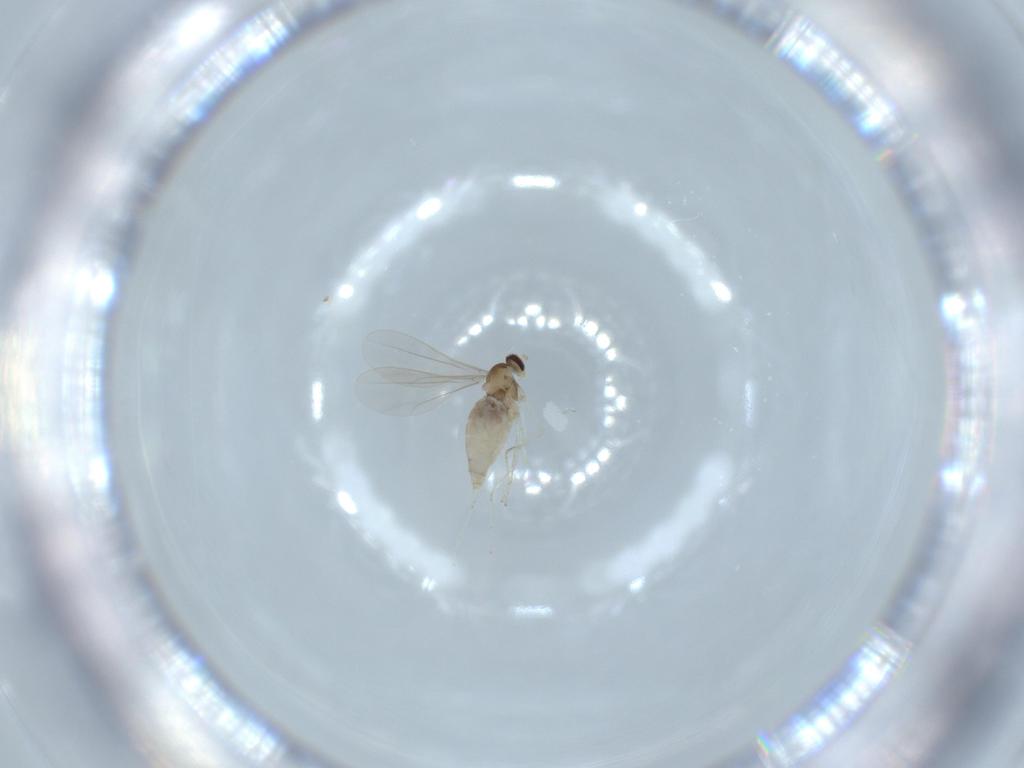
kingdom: Animalia
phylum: Arthropoda
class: Insecta
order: Diptera
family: Cecidomyiidae
